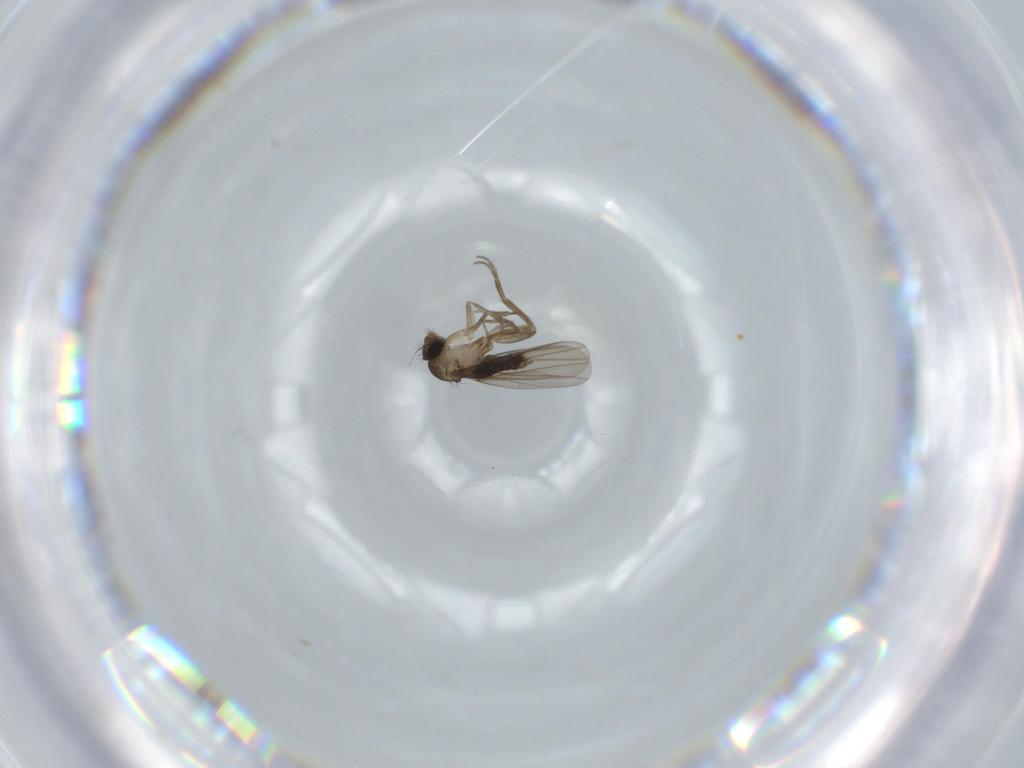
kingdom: Animalia
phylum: Arthropoda
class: Insecta
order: Diptera
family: Phoridae
